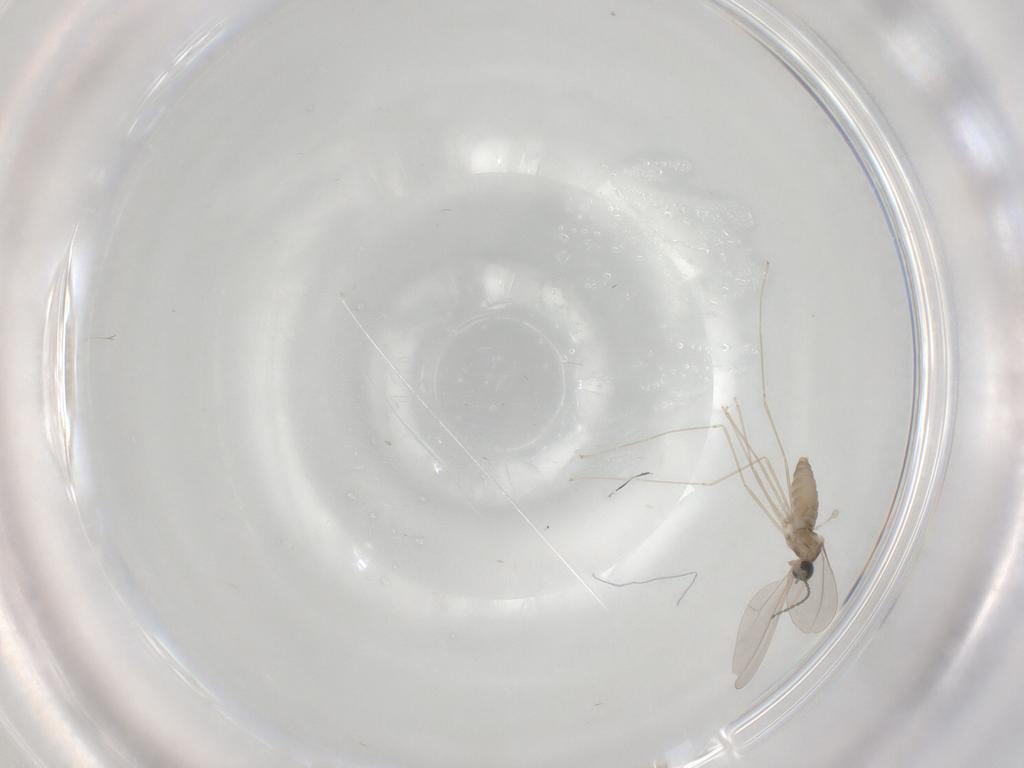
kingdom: Animalia
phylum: Arthropoda
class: Insecta
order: Diptera
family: Cecidomyiidae
